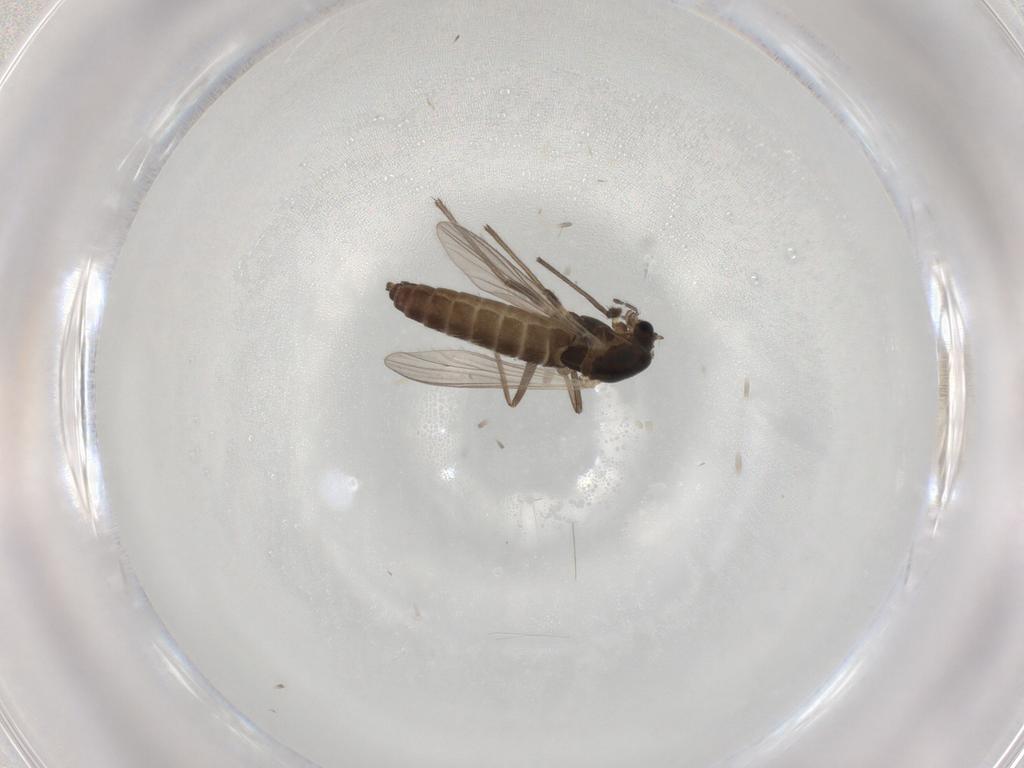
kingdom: Animalia
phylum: Arthropoda
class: Insecta
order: Diptera
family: Chironomidae
